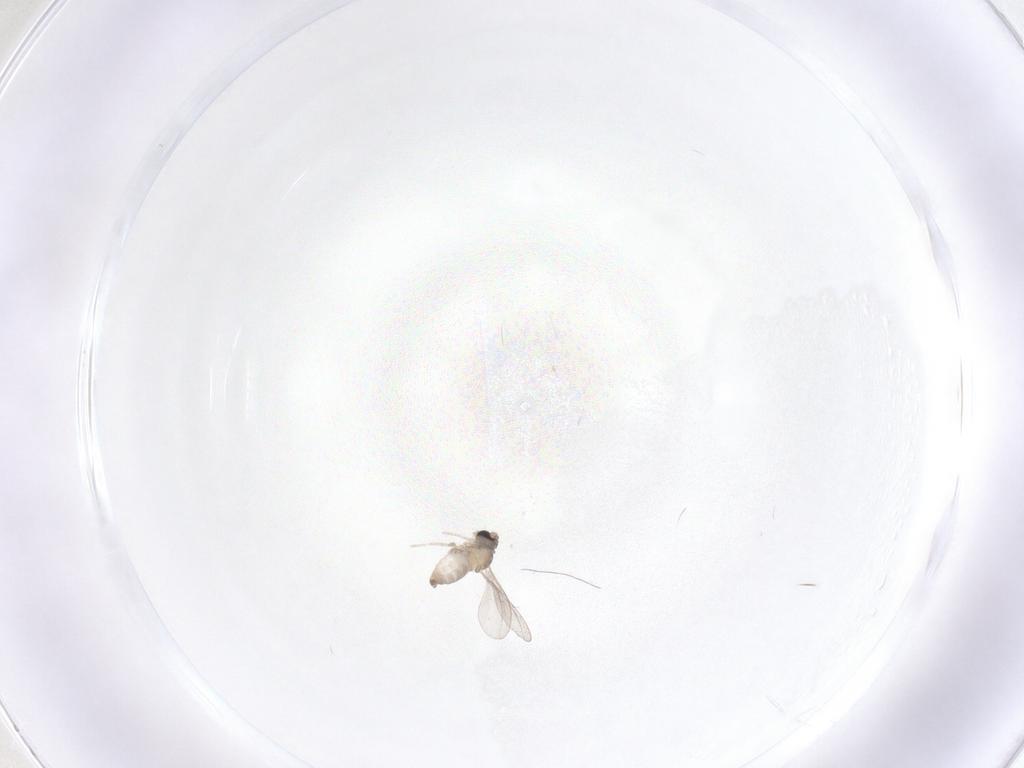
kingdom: Animalia
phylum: Arthropoda
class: Insecta
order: Diptera
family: Cecidomyiidae
